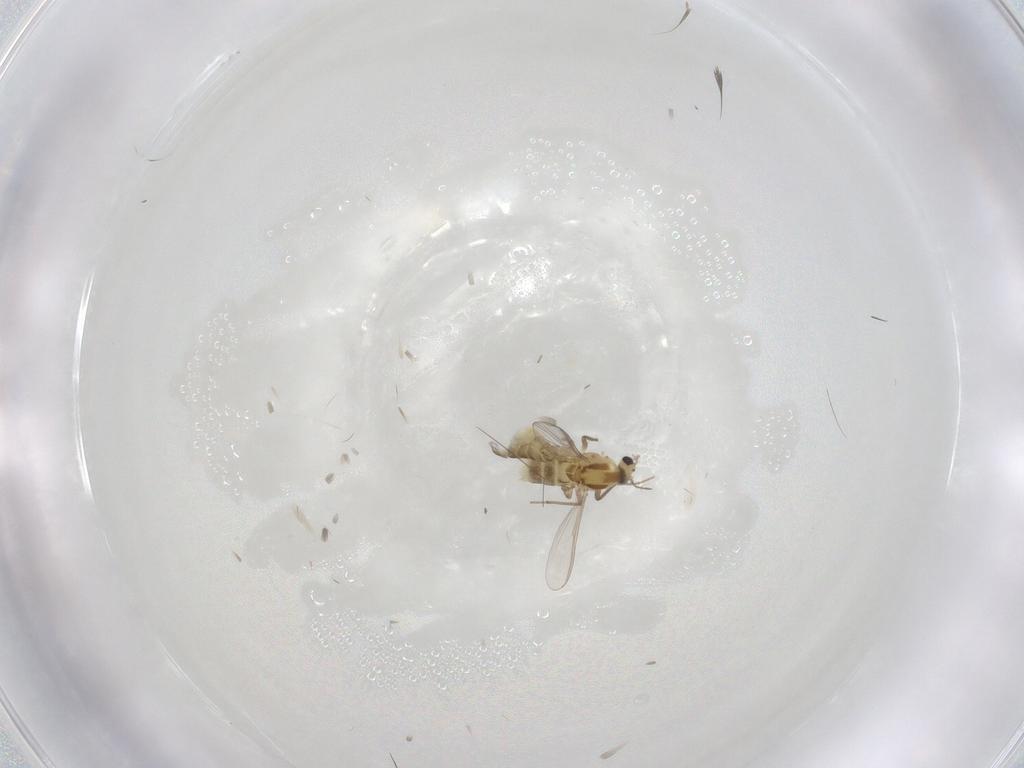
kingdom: Animalia
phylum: Arthropoda
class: Insecta
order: Diptera
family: Chironomidae
